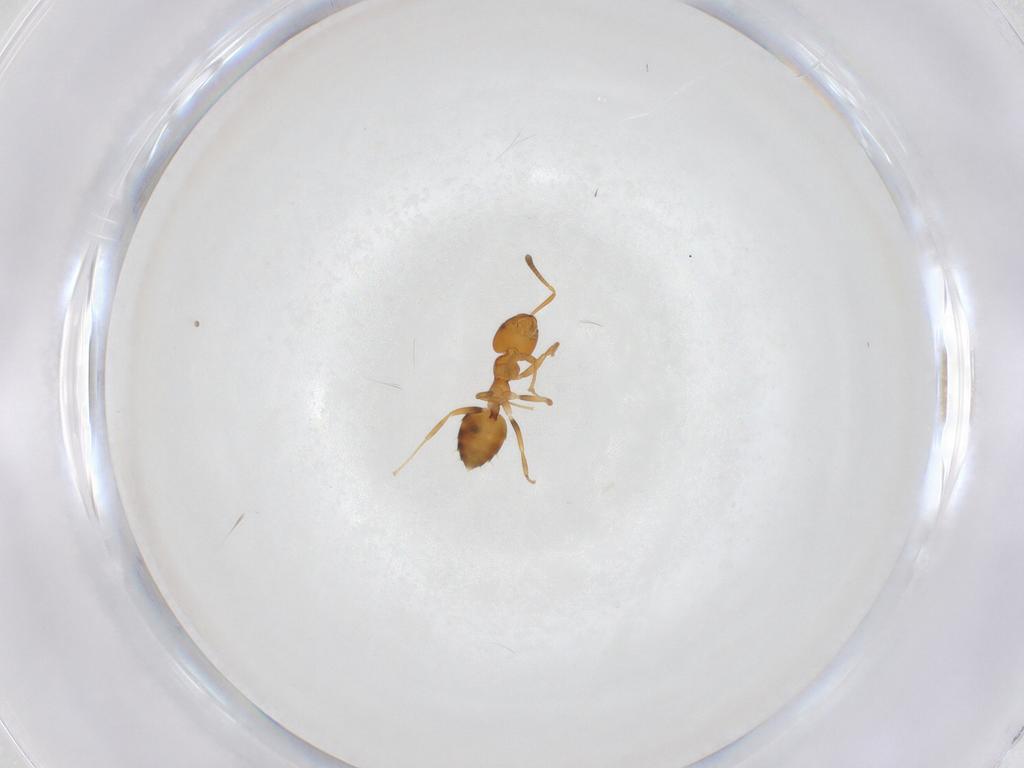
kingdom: Animalia
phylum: Arthropoda
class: Insecta
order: Hymenoptera
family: Formicidae
